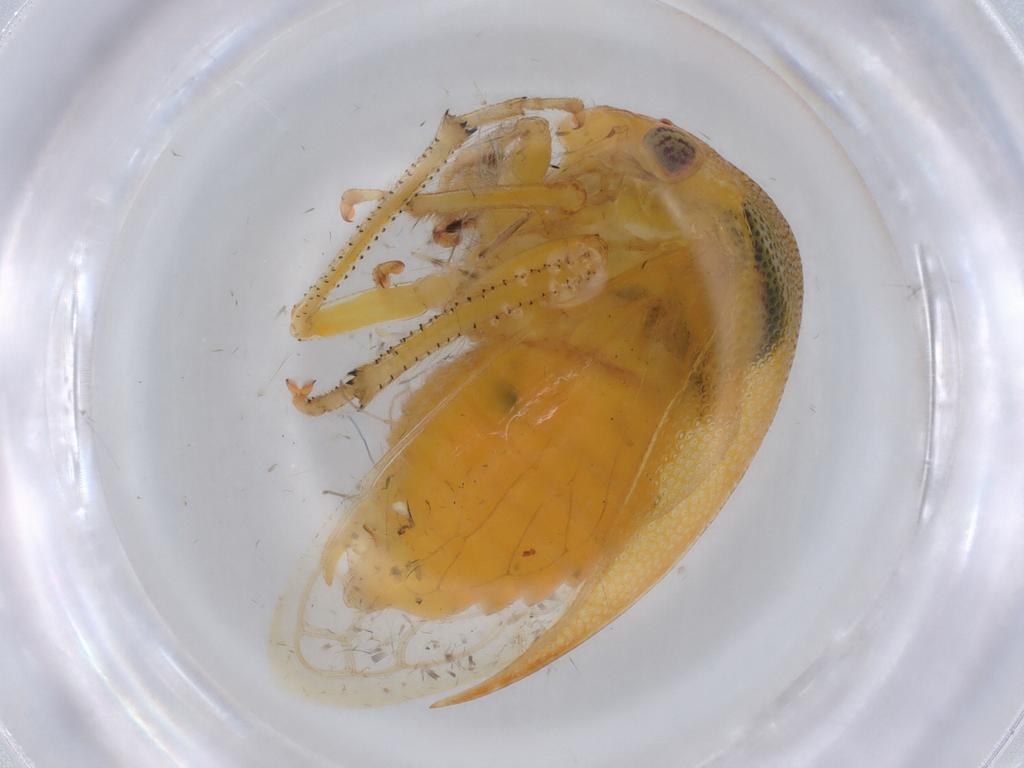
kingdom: Animalia
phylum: Arthropoda
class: Insecta
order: Hemiptera
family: Membracidae
